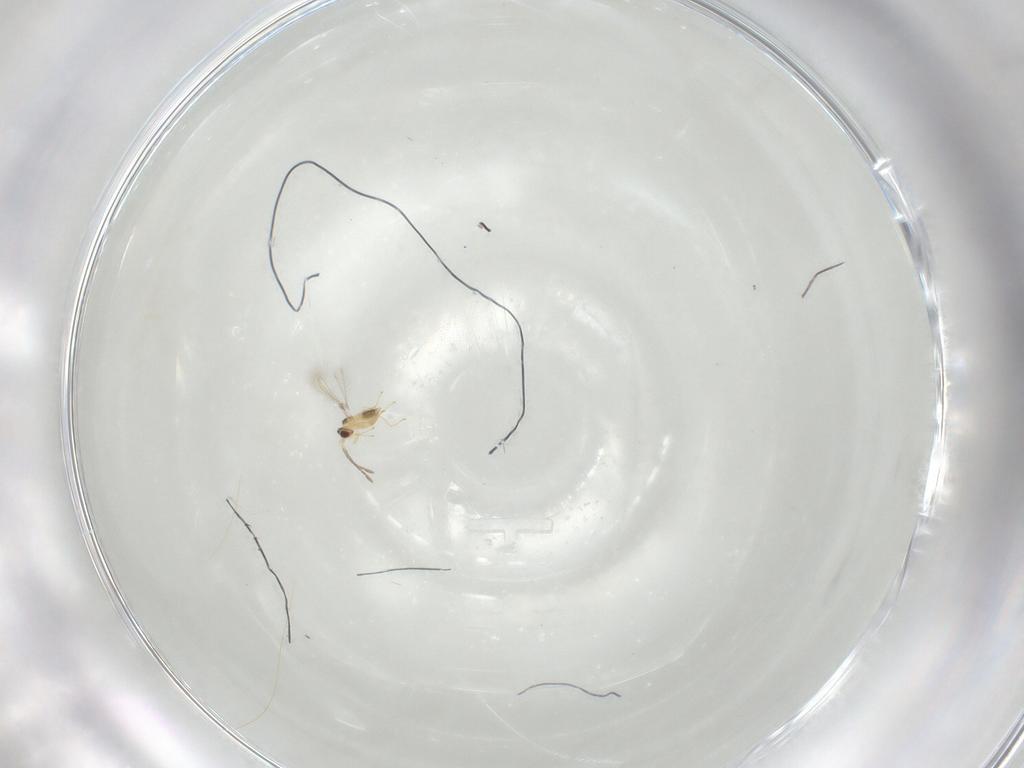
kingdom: Animalia
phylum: Arthropoda
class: Insecta
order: Hymenoptera
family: Mymaridae
